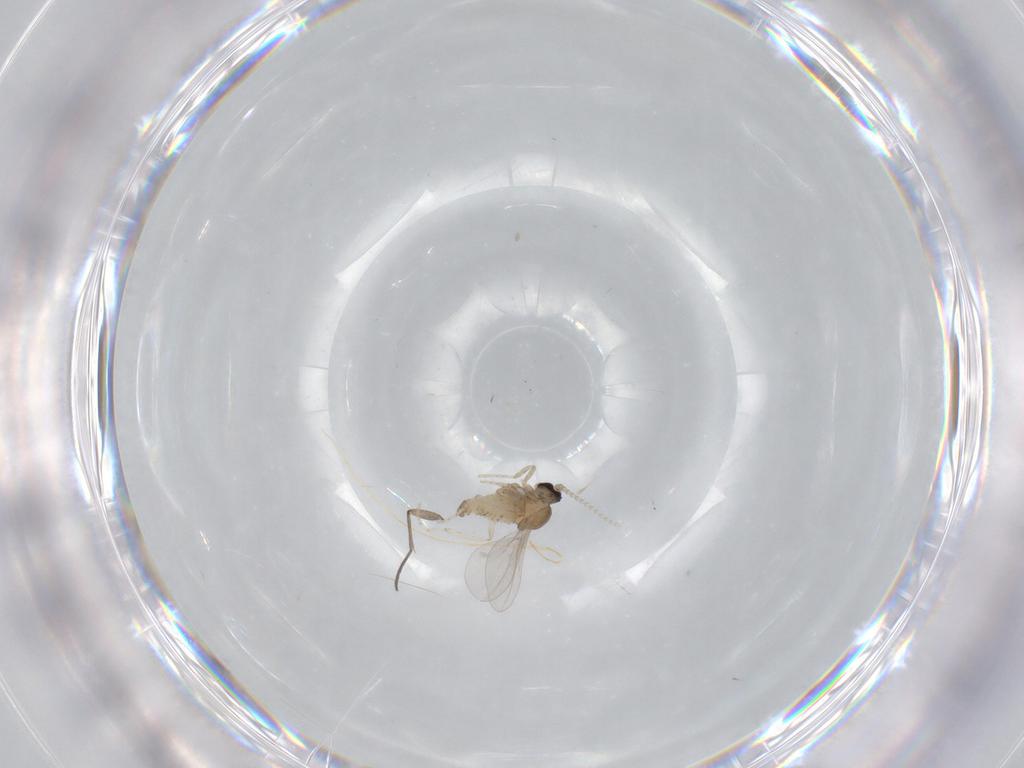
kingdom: Animalia
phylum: Arthropoda
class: Insecta
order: Diptera
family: Sciaridae
